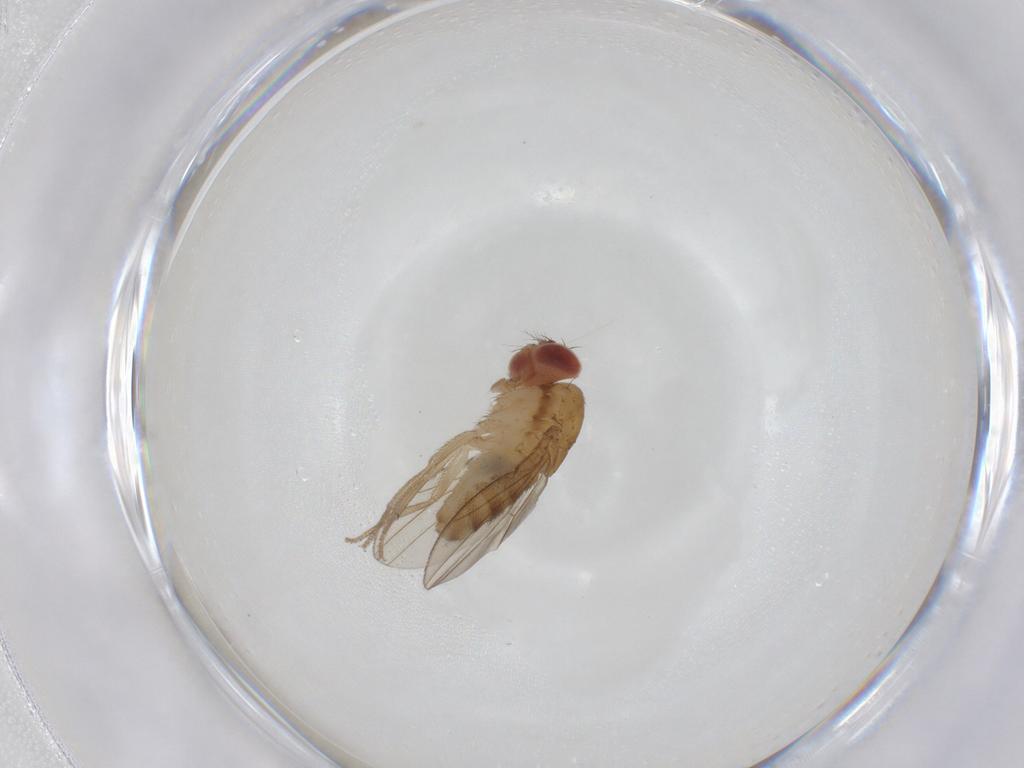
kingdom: Animalia
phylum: Arthropoda
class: Insecta
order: Diptera
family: Drosophilidae
